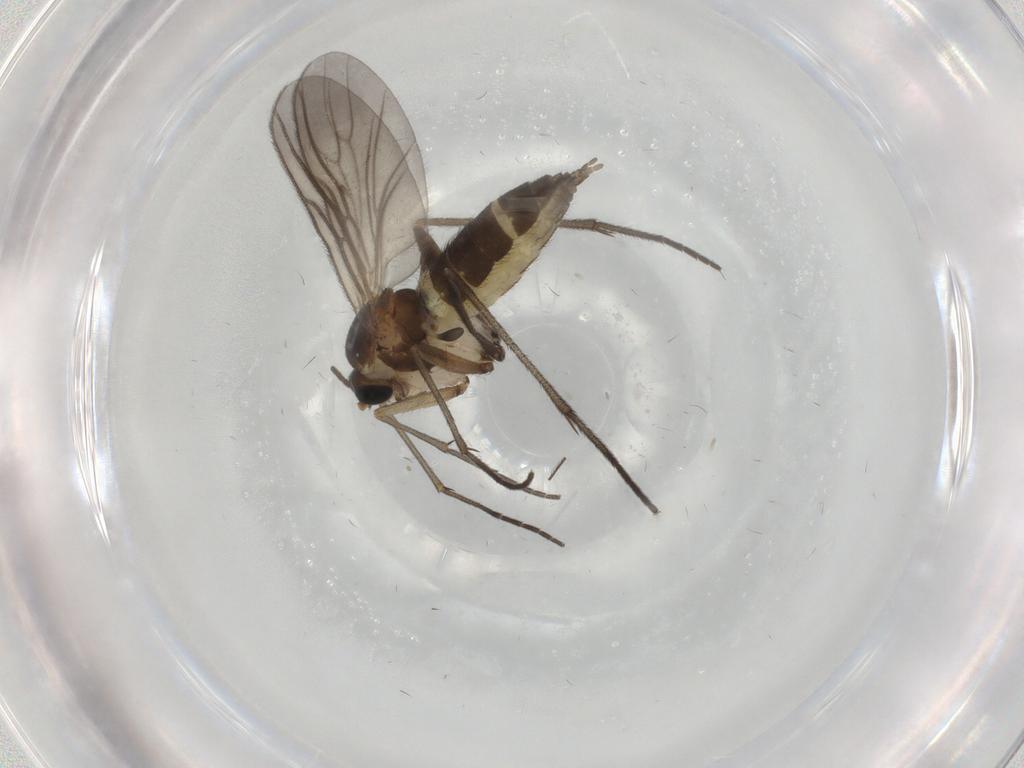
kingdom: Animalia
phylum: Arthropoda
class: Insecta
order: Diptera
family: Sciaridae
